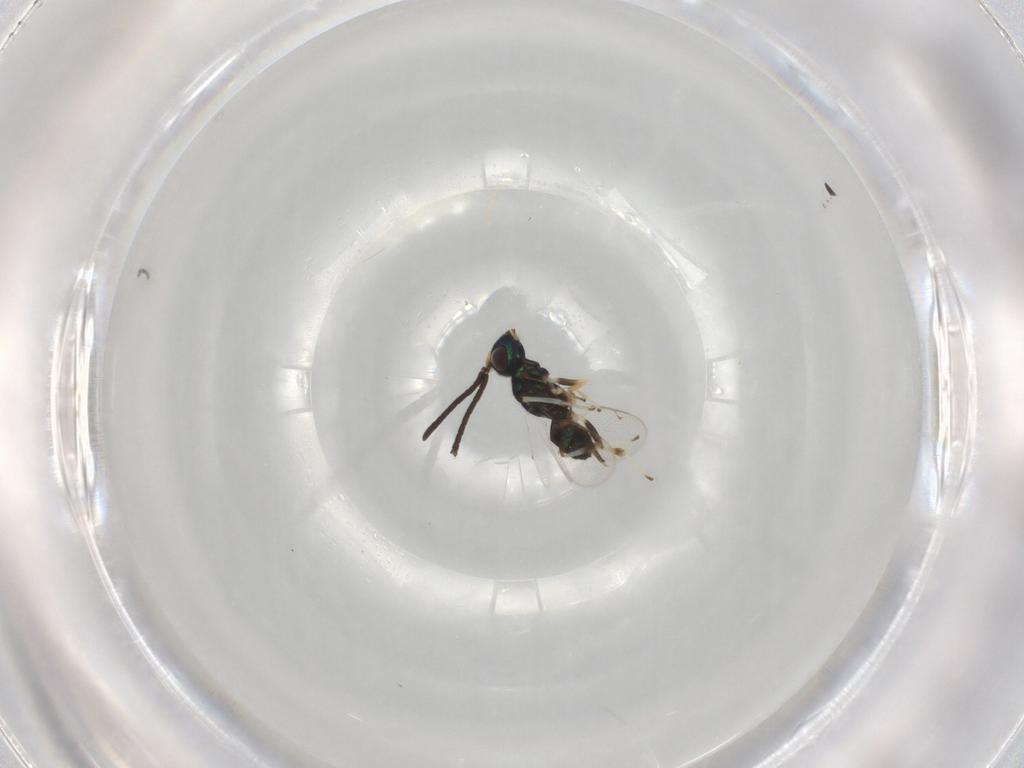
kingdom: Animalia
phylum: Arthropoda
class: Insecta
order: Hymenoptera
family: Eupelmidae
